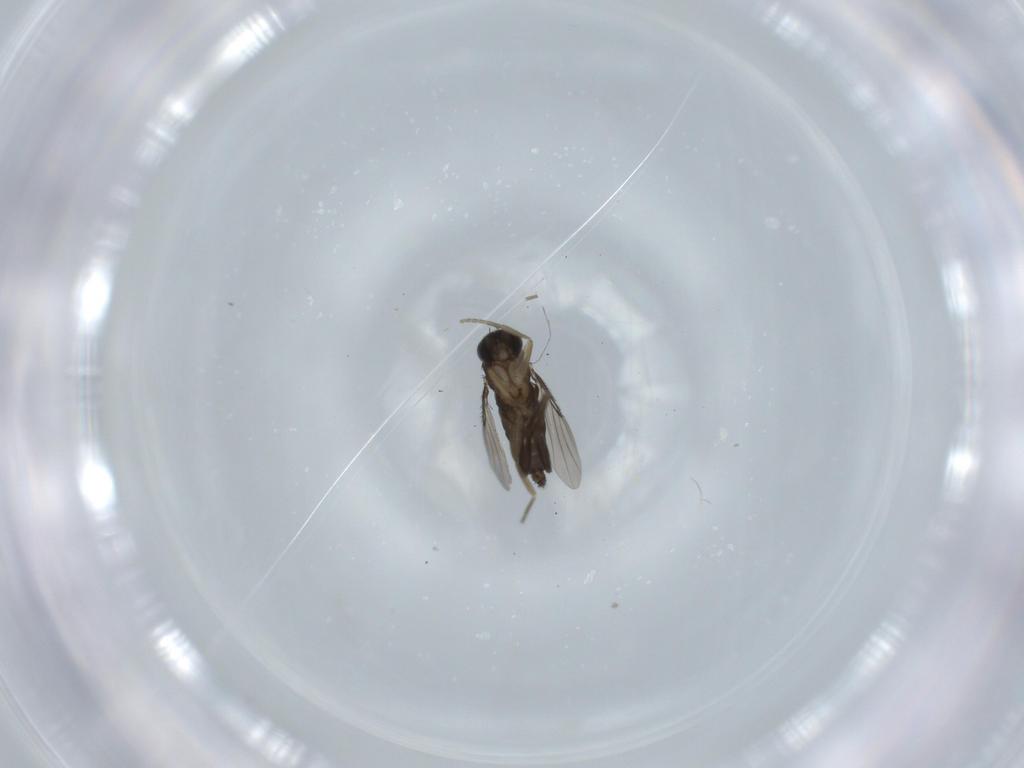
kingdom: Animalia
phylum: Arthropoda
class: Insecta
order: Diptera
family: Phoridae
